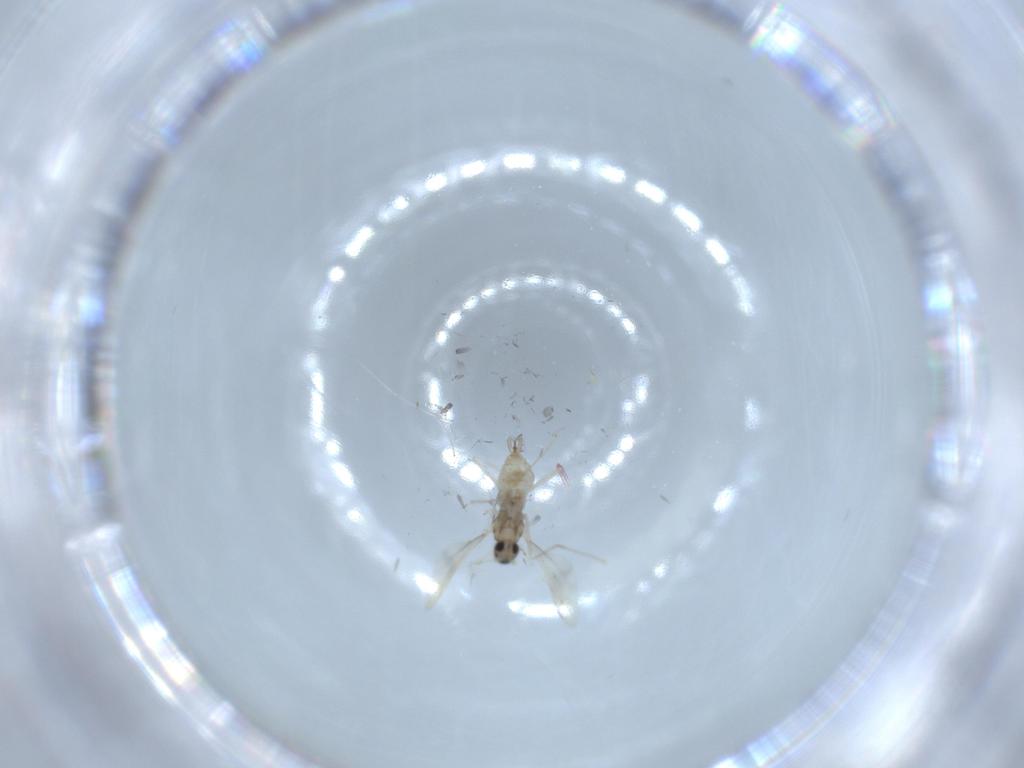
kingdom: Animalia
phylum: Arthropoda
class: Insecta
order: Diptera
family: Cecidomyiidae
